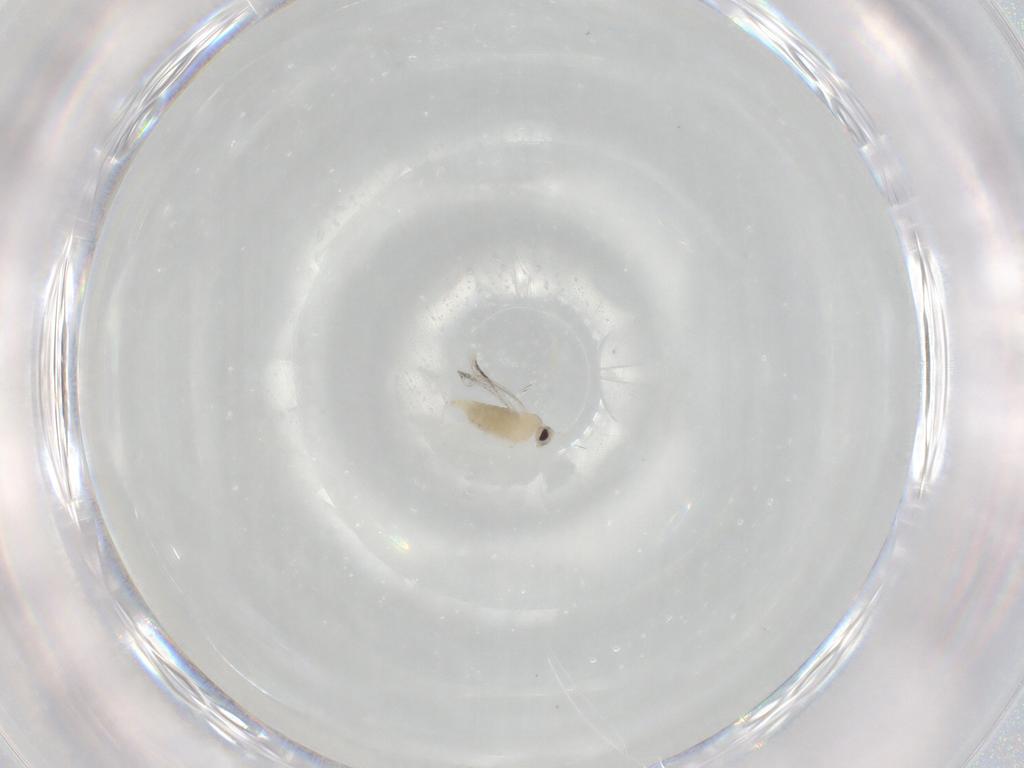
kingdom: Animalia
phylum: Arthropoda
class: Insecta
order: Diptera
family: Cecidomyiidae
